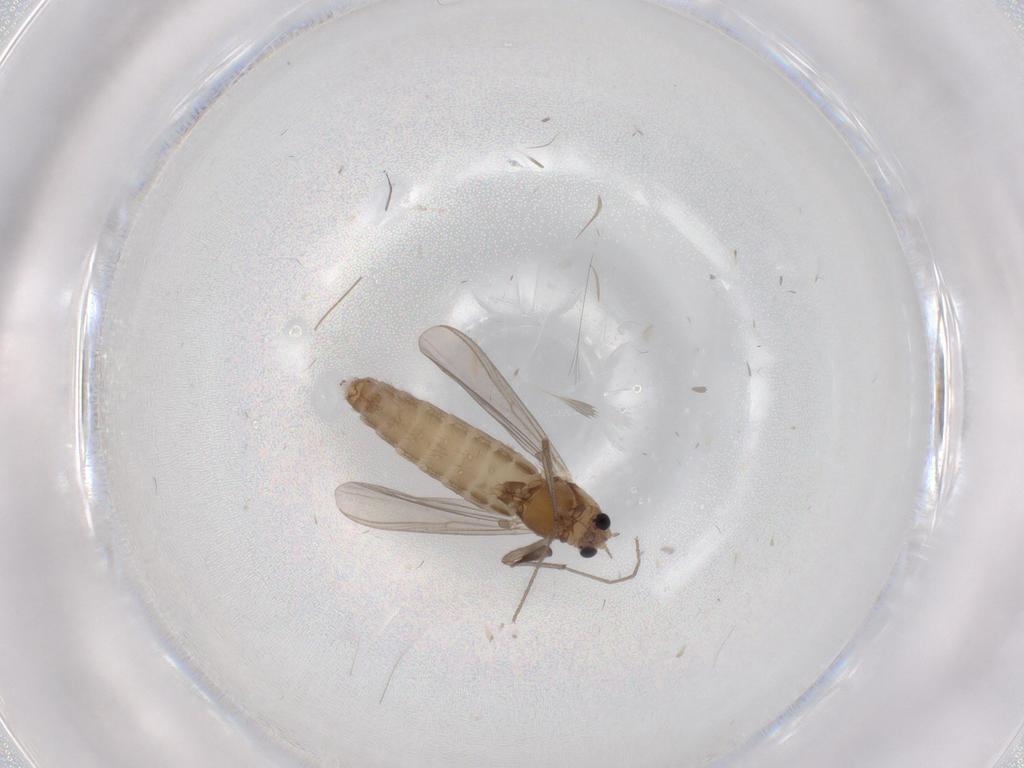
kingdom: Animalia
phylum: Arthropoda
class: Insecta
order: Diptera
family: Chironomidae
